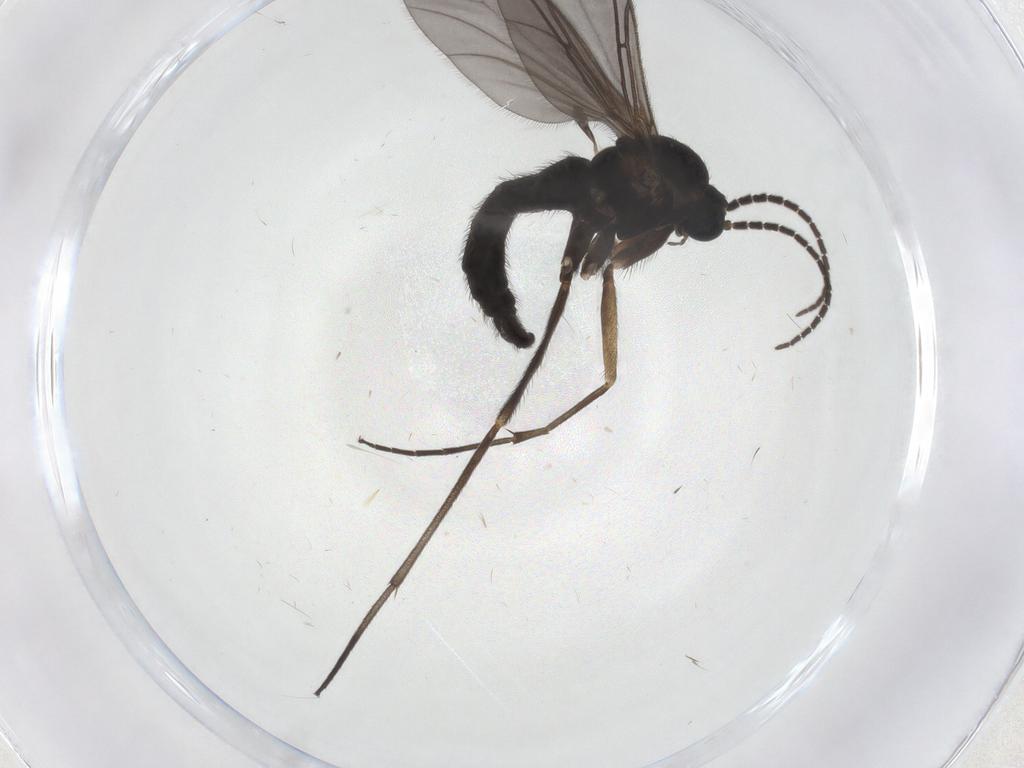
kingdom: Animalia
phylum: Arthropoda
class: Insecta
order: Diptera
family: Sciaridae
